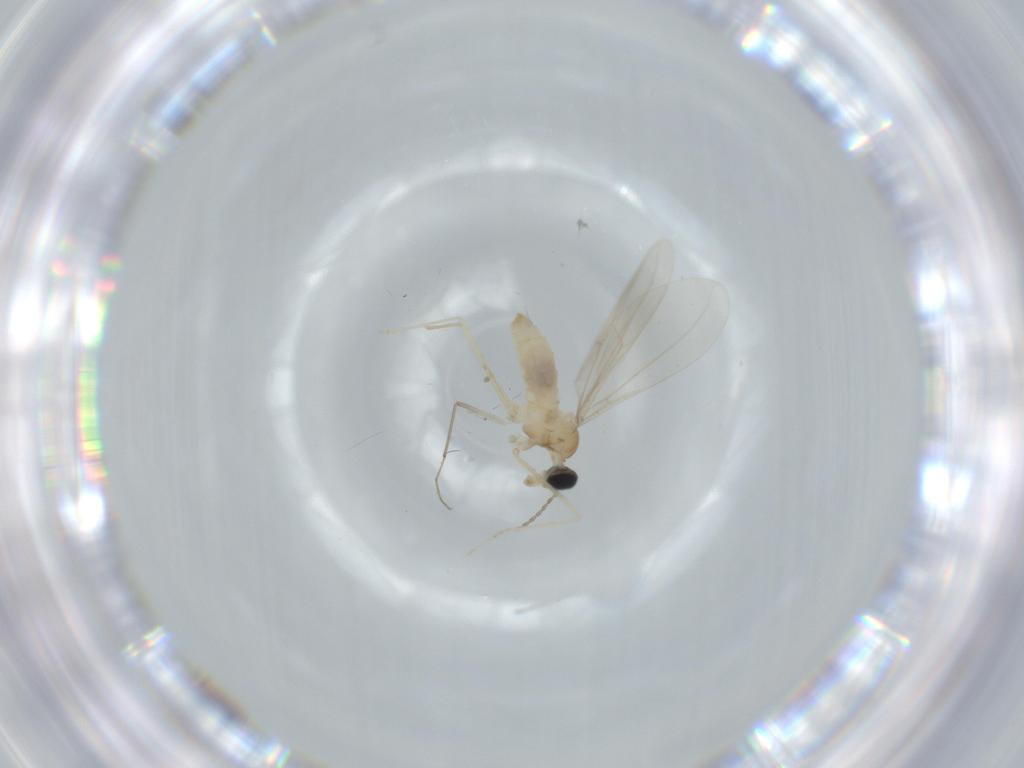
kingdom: Animalia
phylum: Arthropoda
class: Insecta
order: Diptera
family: Cecidomyiidae
